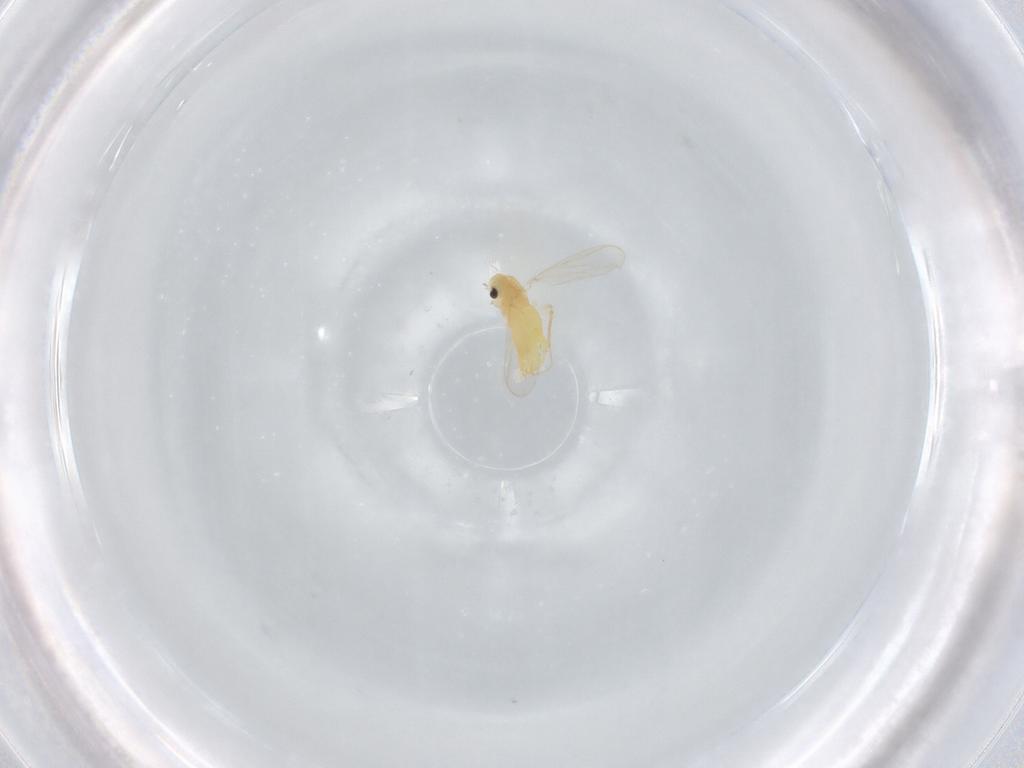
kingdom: Animalia
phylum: Arthropoda
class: Insecta
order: Diptera
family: Chironomidae
